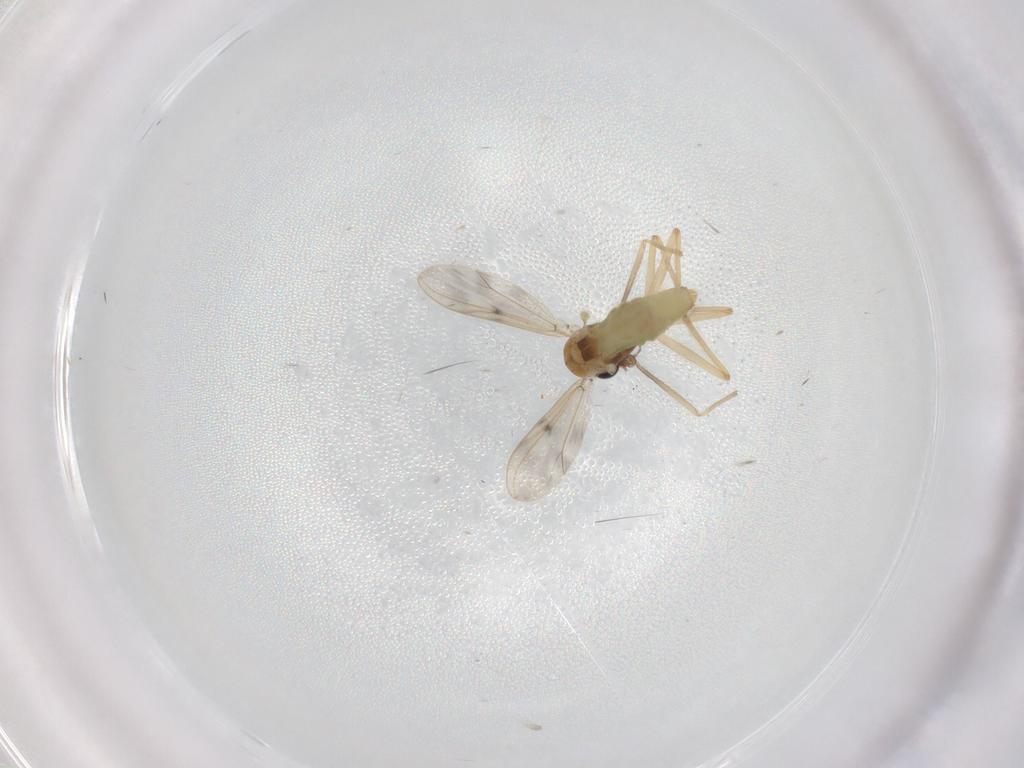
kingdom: Animalia
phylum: Arthropoda
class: Insecta
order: Diptera
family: Chironomidae
